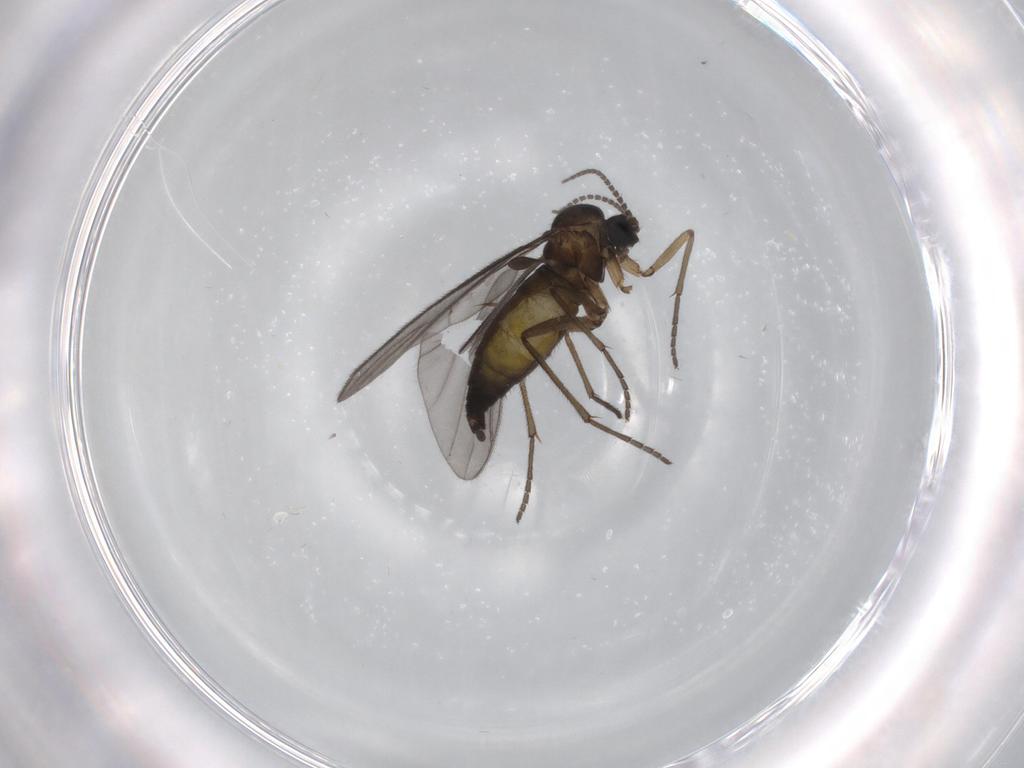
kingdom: Animalia
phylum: Arthropoda
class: Insecta
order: Diptera
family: Sciaridae
